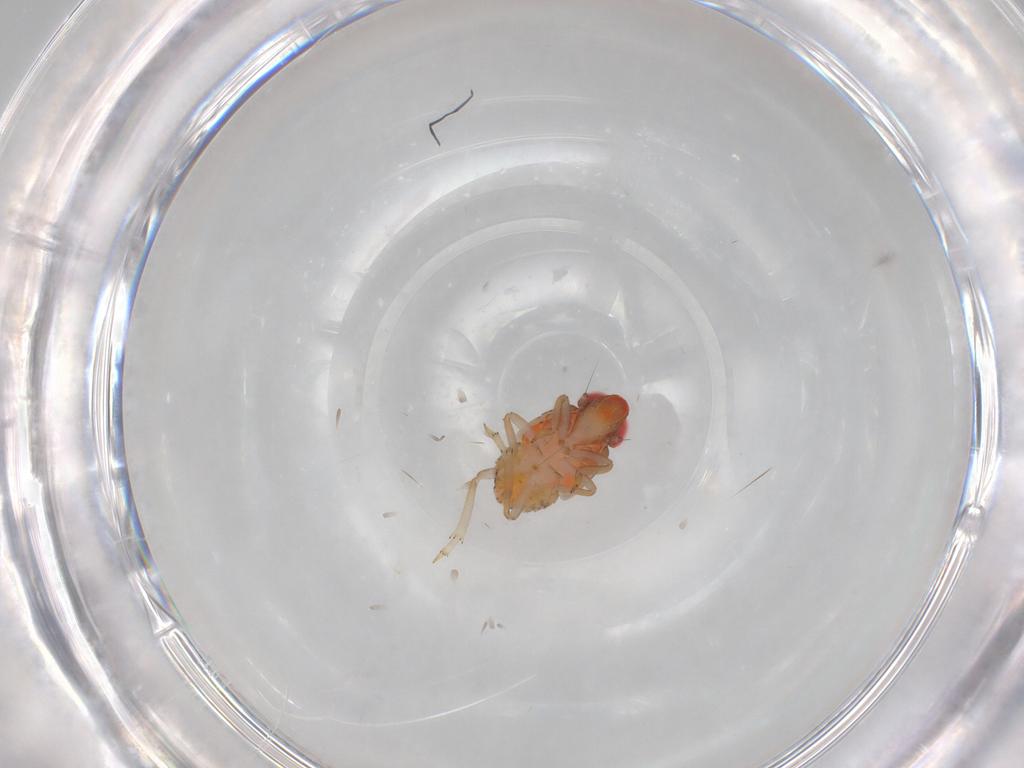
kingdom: Animalia
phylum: Arthropoda
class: Insecta
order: Hemiptera
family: Issidae
